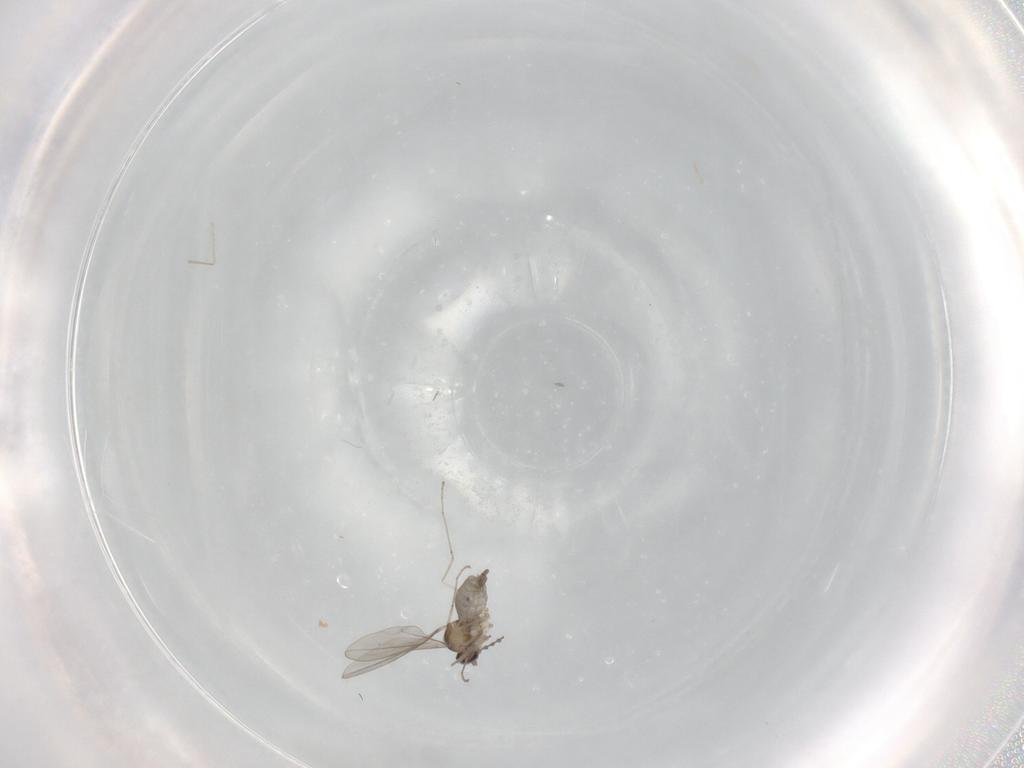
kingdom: Animalia
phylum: Arthropoda
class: Insecta
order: Diptera
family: Cecidomyiidae
